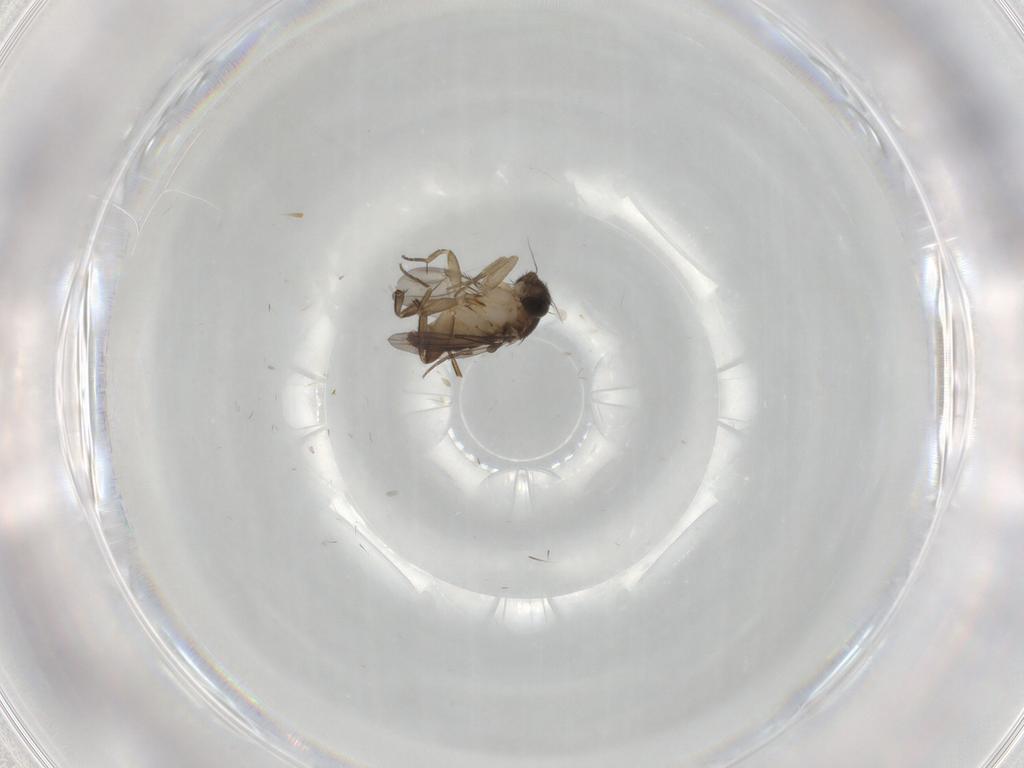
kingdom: Animalia
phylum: Arthropoda
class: Insecta
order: Diptera
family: Phoridae
